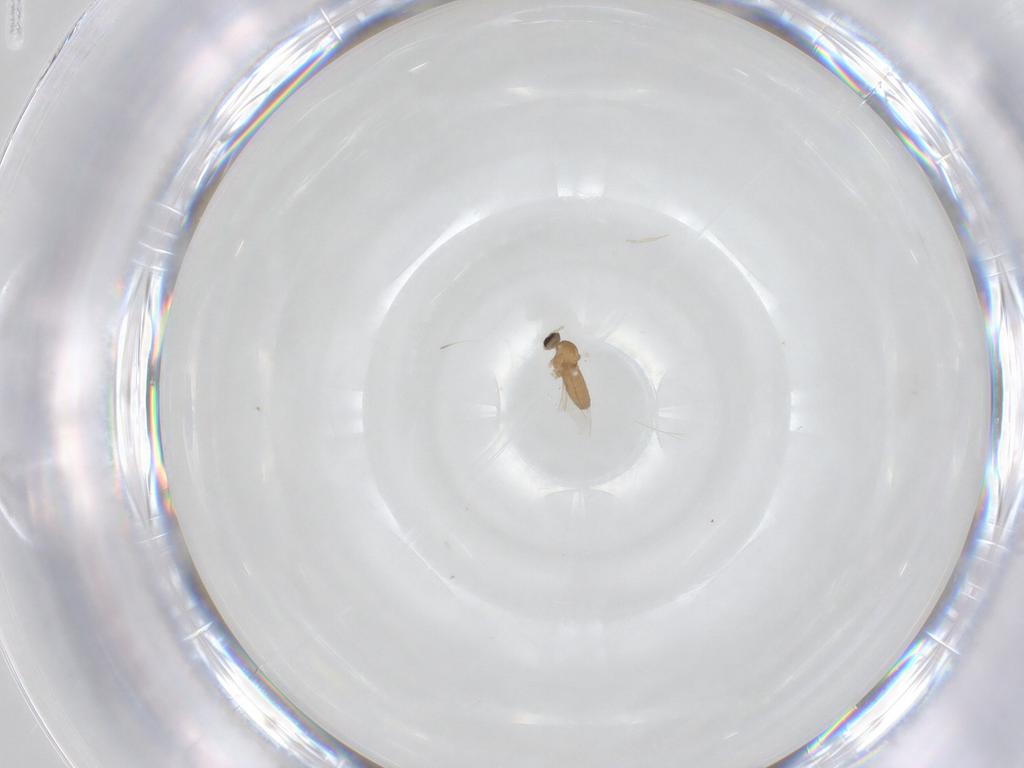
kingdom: Animalia
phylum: Arthropoda
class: Insecta
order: Diptera
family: Cecidomyiidae
